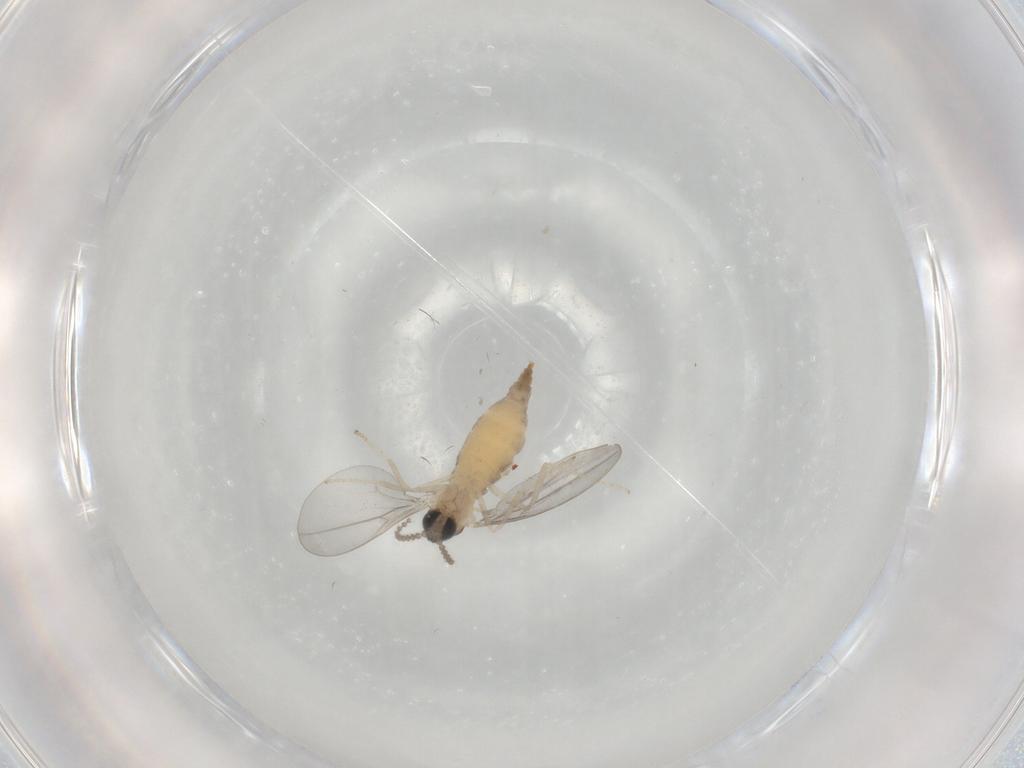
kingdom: Animalia
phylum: Arthropoda
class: Insecta
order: Diptera
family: Cecidomyiidae
